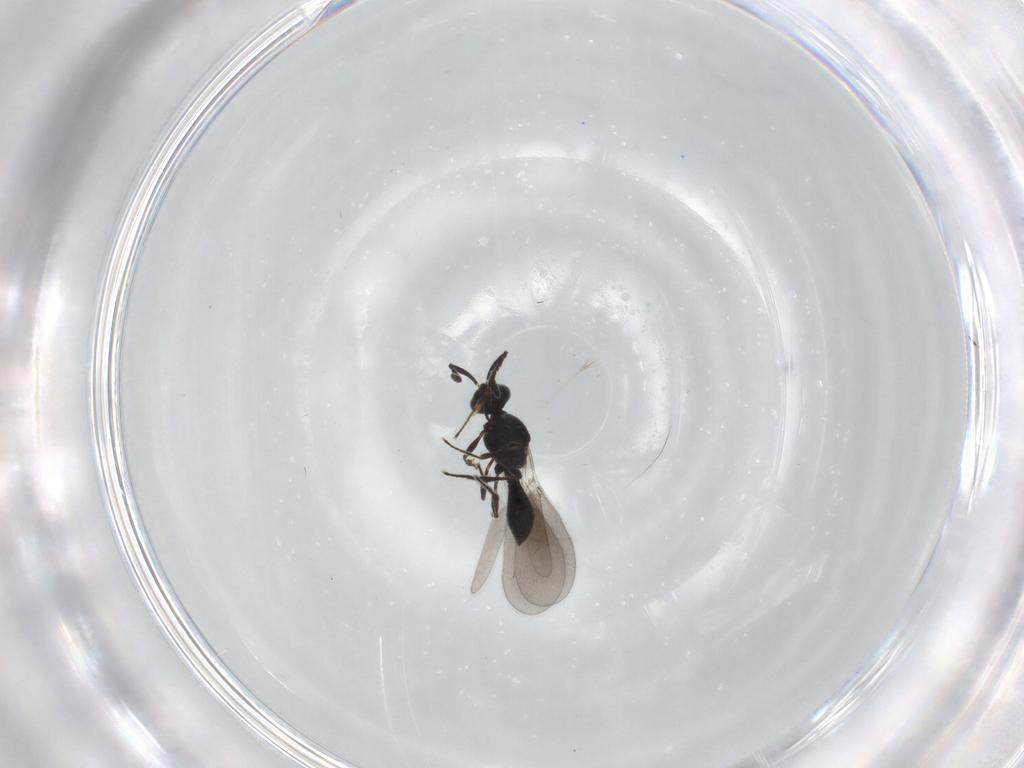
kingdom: Animalia
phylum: Arthropoda
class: Insecta
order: Hymenoptera
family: Platygastridae
